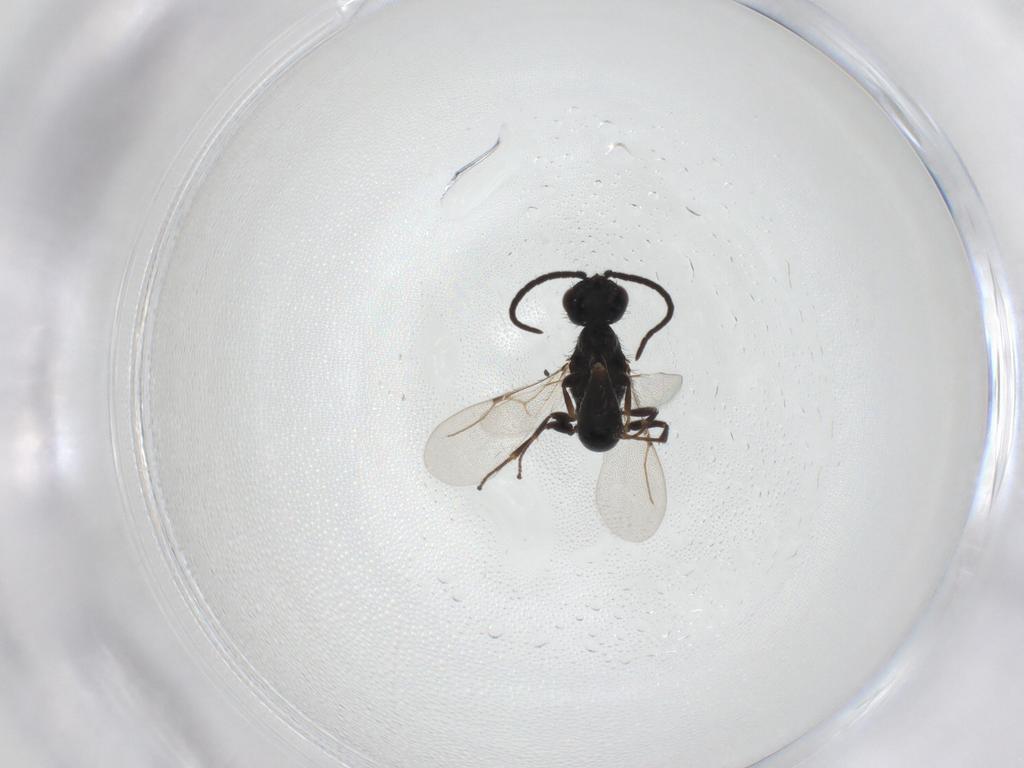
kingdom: Animalia
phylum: Arthropoda
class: Insecta
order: Hymenoptera
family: Bethylidae
